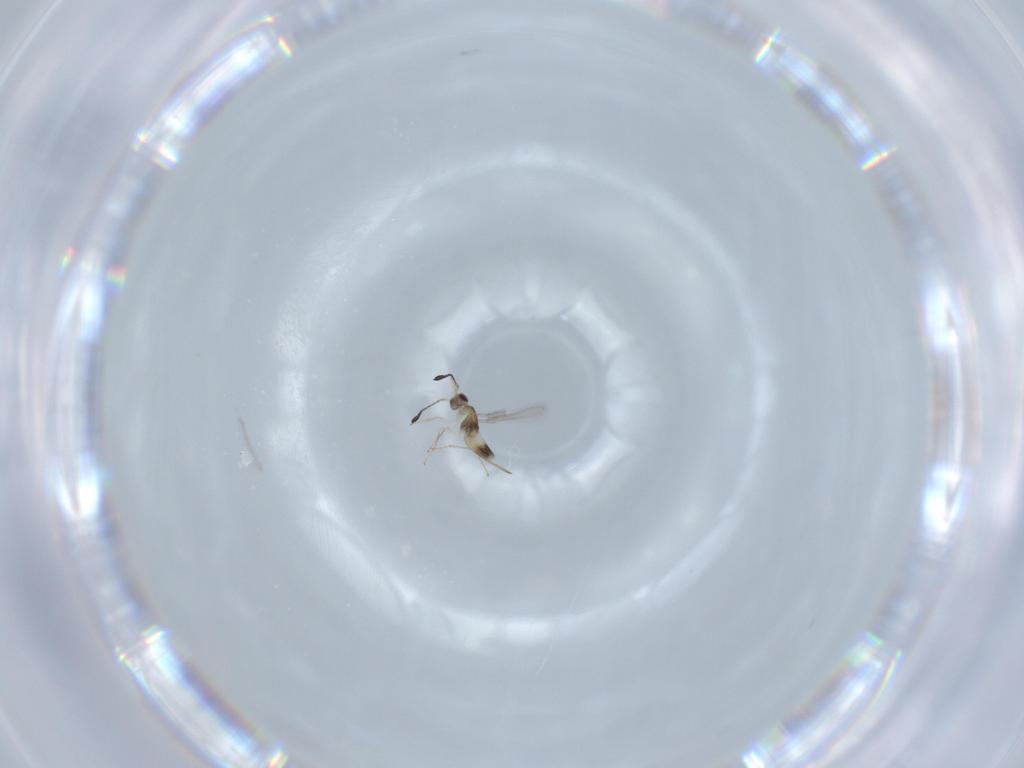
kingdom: Animalia
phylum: Arthropoda
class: Insecta
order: Hymenoptera
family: Mymaridae
